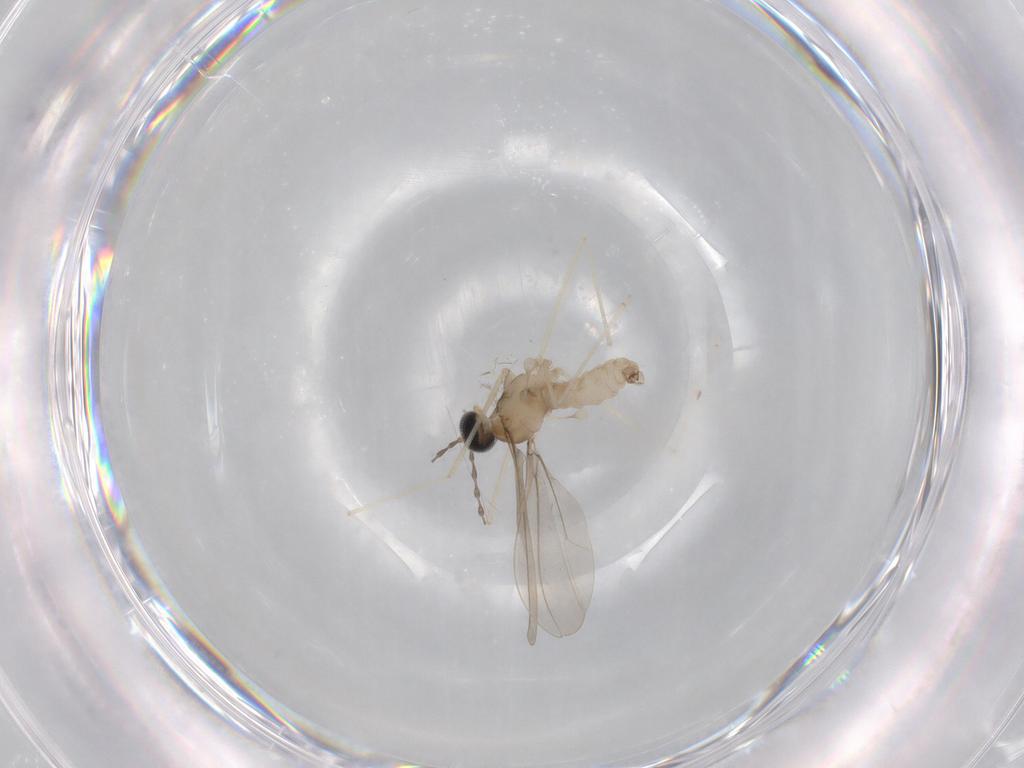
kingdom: Animalia
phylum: Arthropoda
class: Insecta
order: Diptera
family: Cecidomyiidae
